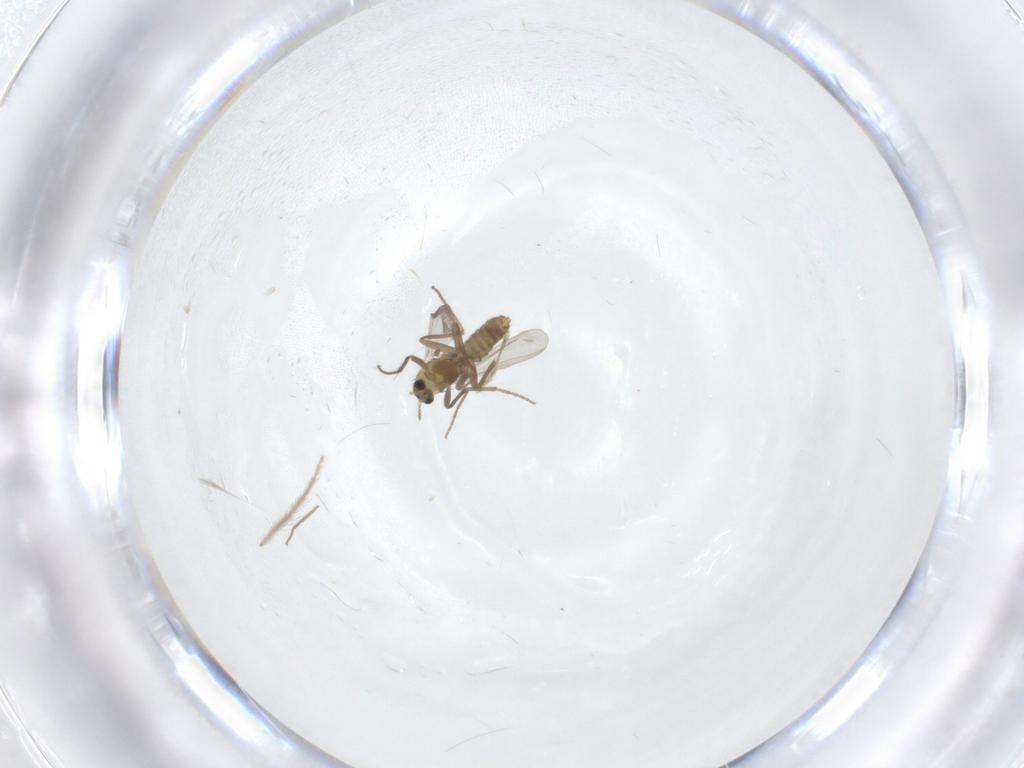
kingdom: Animalia
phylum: Arthropoda
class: Insecta
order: Diptera
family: Chironomidae
